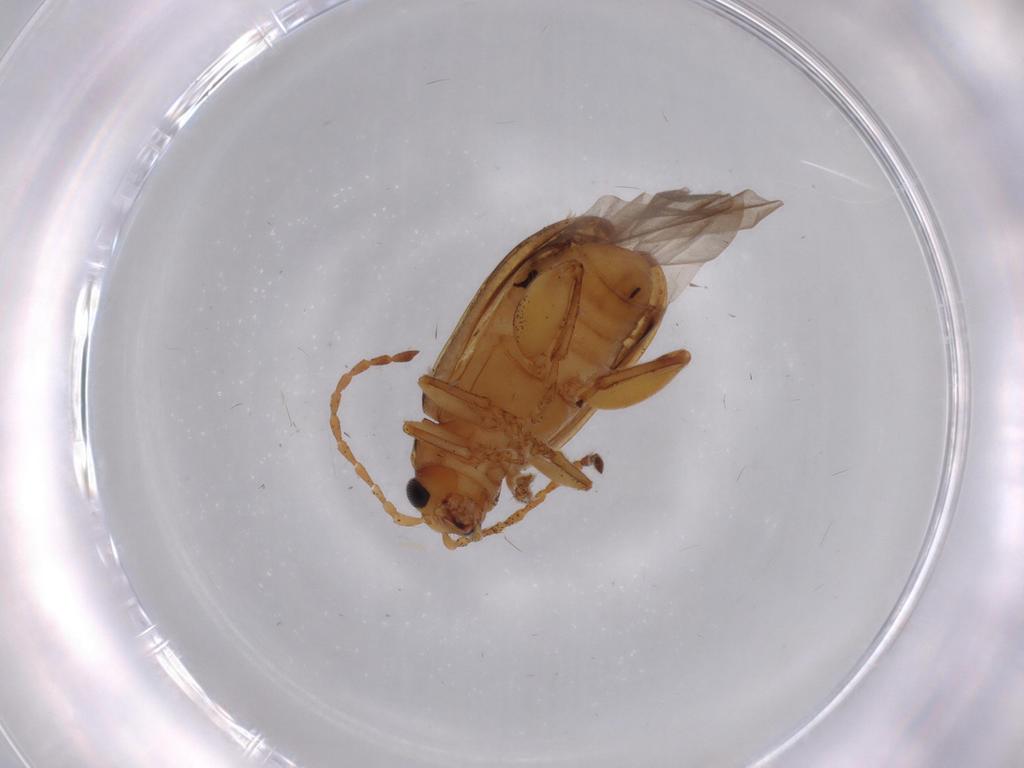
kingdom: Animalia
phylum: Arthropoda
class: Insecta
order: Coleoptera
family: Chrysomelidae
